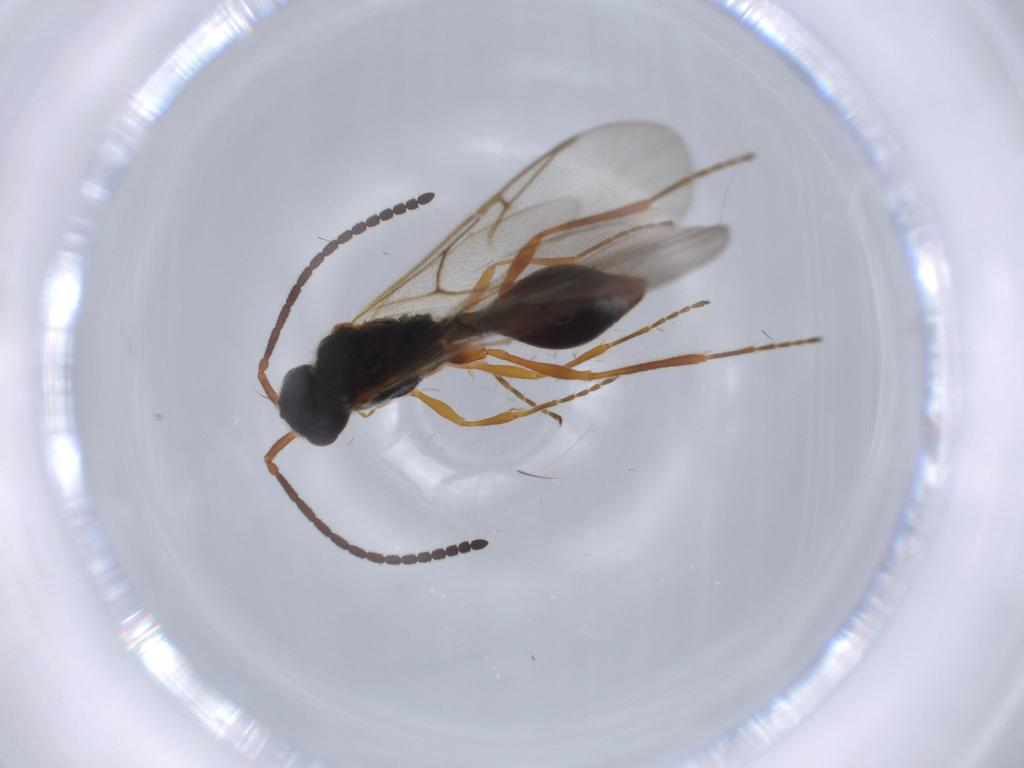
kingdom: Animalia
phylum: Arthropoda
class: Insecta
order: Hymenoptera
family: Diapriidae
